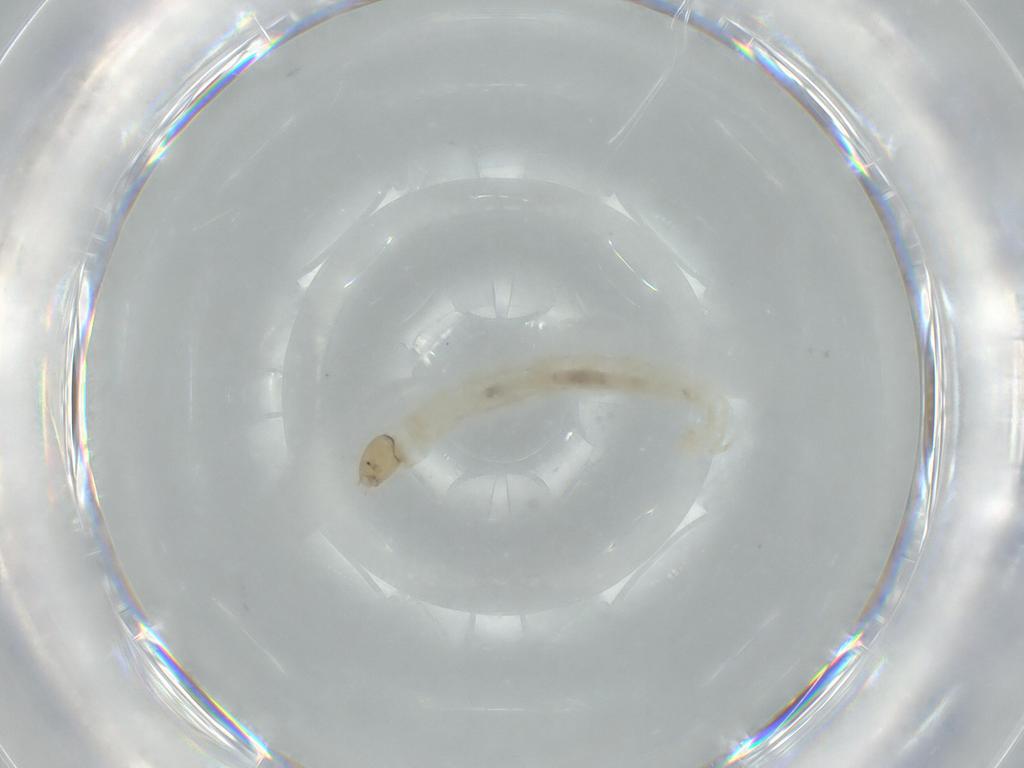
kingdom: Animalia
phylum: Arthropoda
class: Insecta
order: Diptera
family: Chironomidae
